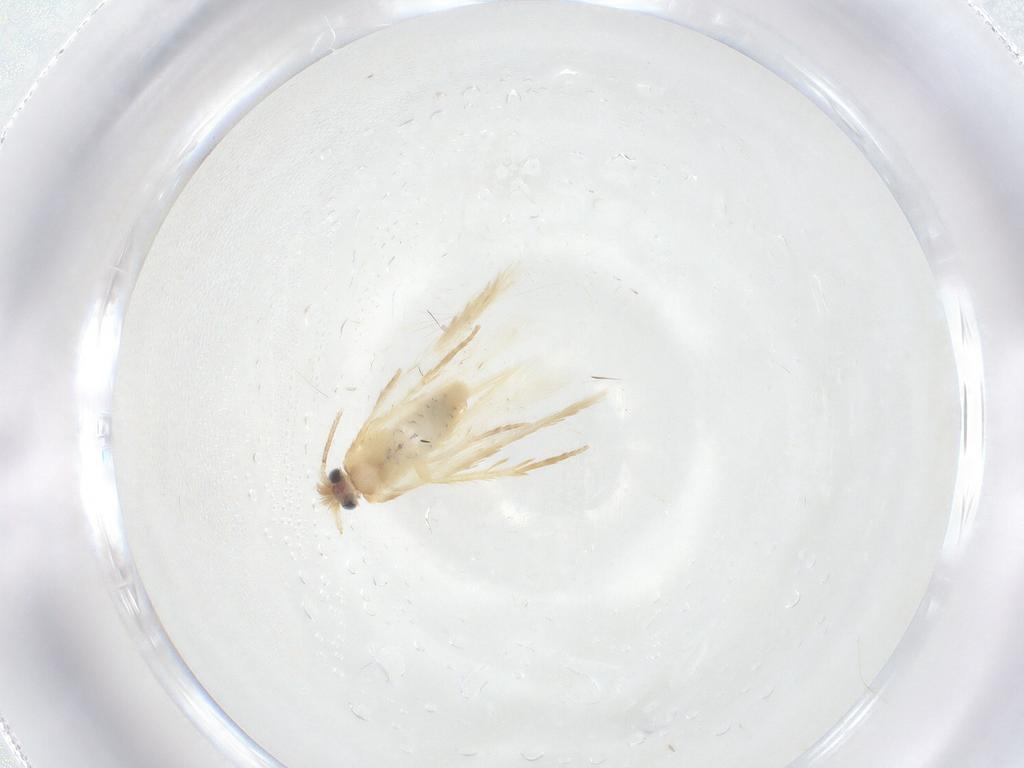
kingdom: Animalia
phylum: Arthropoda
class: Insecta
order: Lepidoptera
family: Nepticulidae
